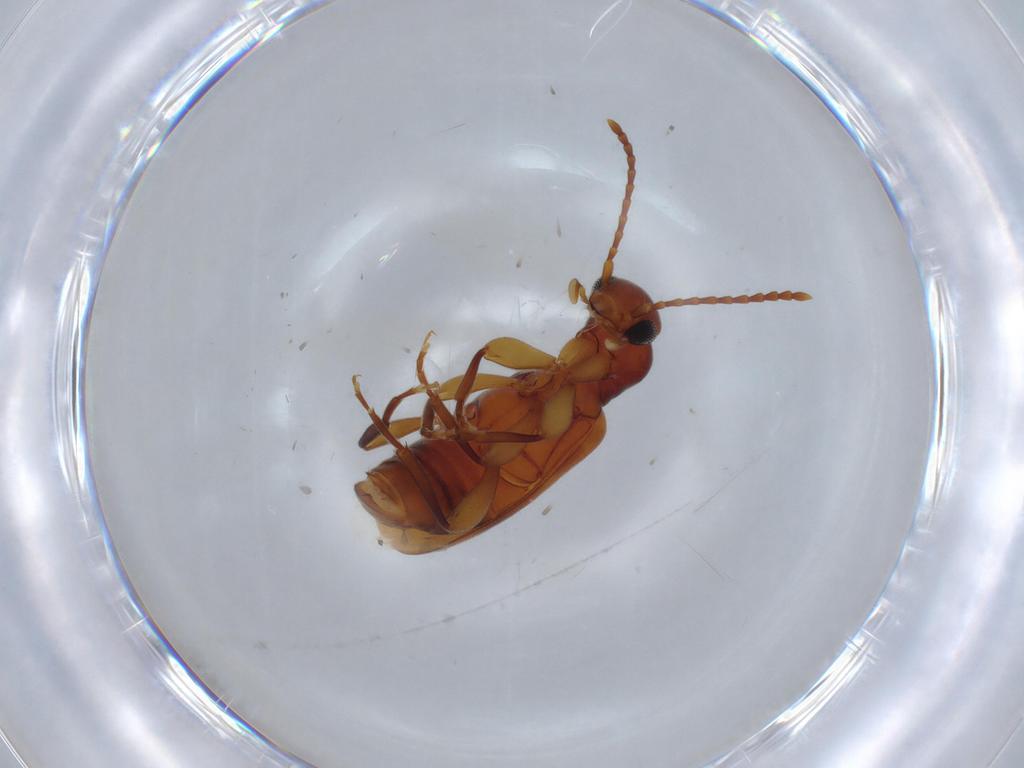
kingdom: Animalia
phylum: Arthropoda
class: Insecta
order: Coleoptera
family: Anthicidae
